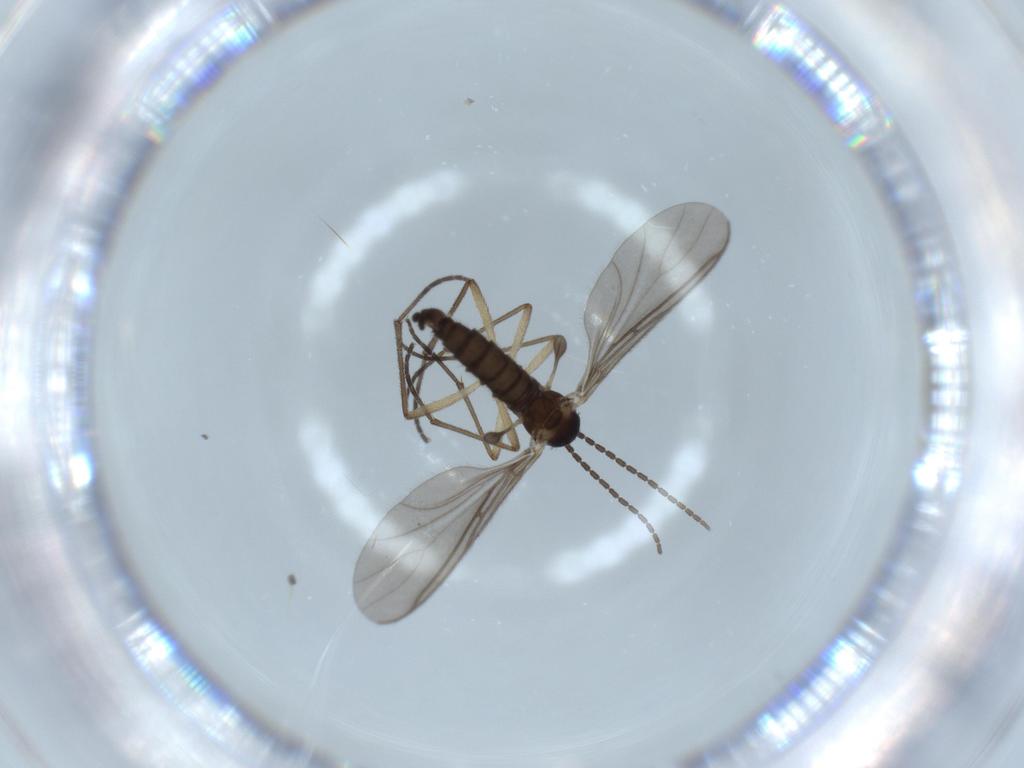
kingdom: Animalia
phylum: Arthropoda
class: Insecta
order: Diptera
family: Sciaridae
